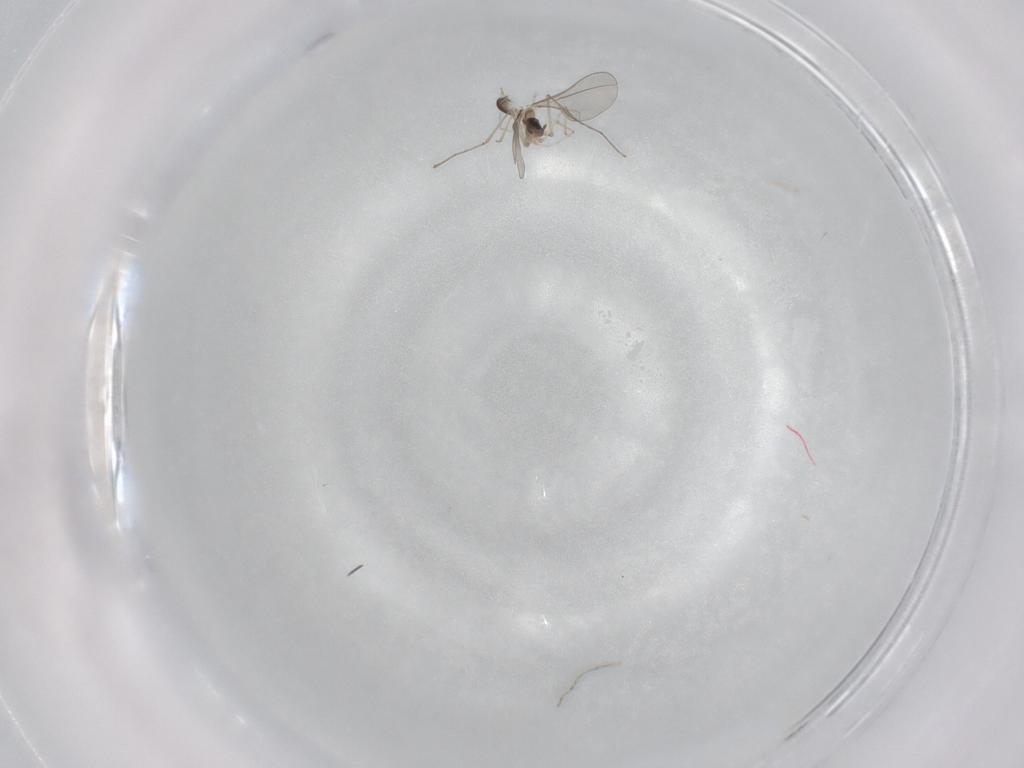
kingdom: Animalia
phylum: Arthropoda
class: Insecta
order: Diptera
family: Cecidomyiidae
